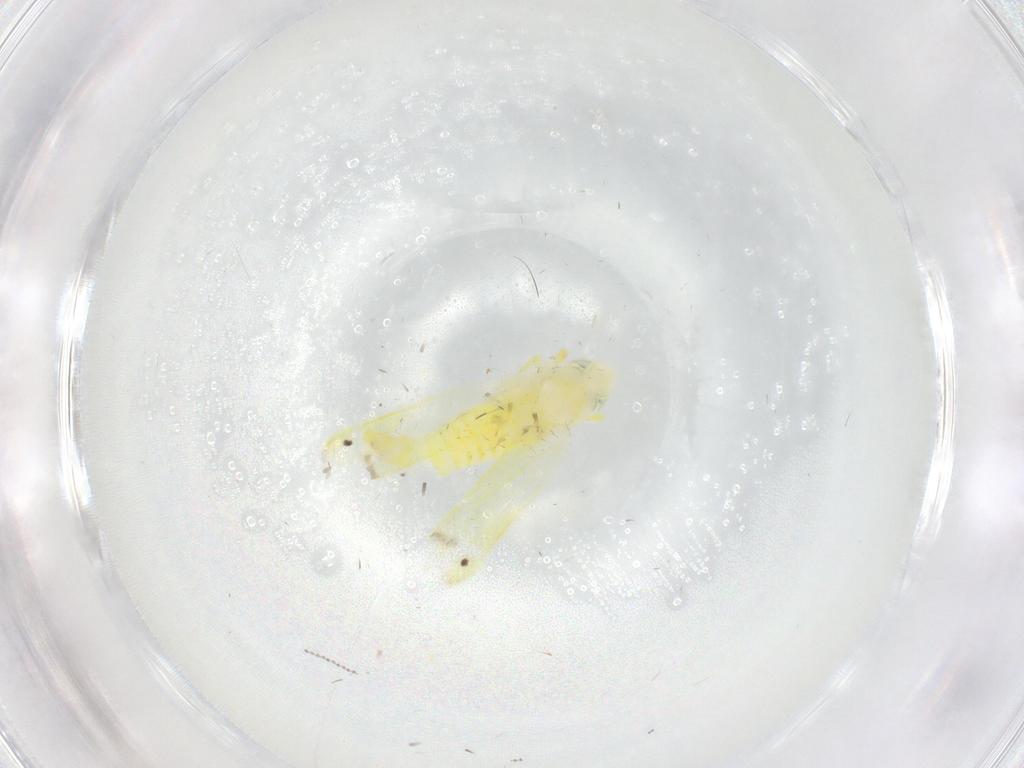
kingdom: Animalia
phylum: Arthropoda
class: Insecta
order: Hemiptera
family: Cicadellidae
